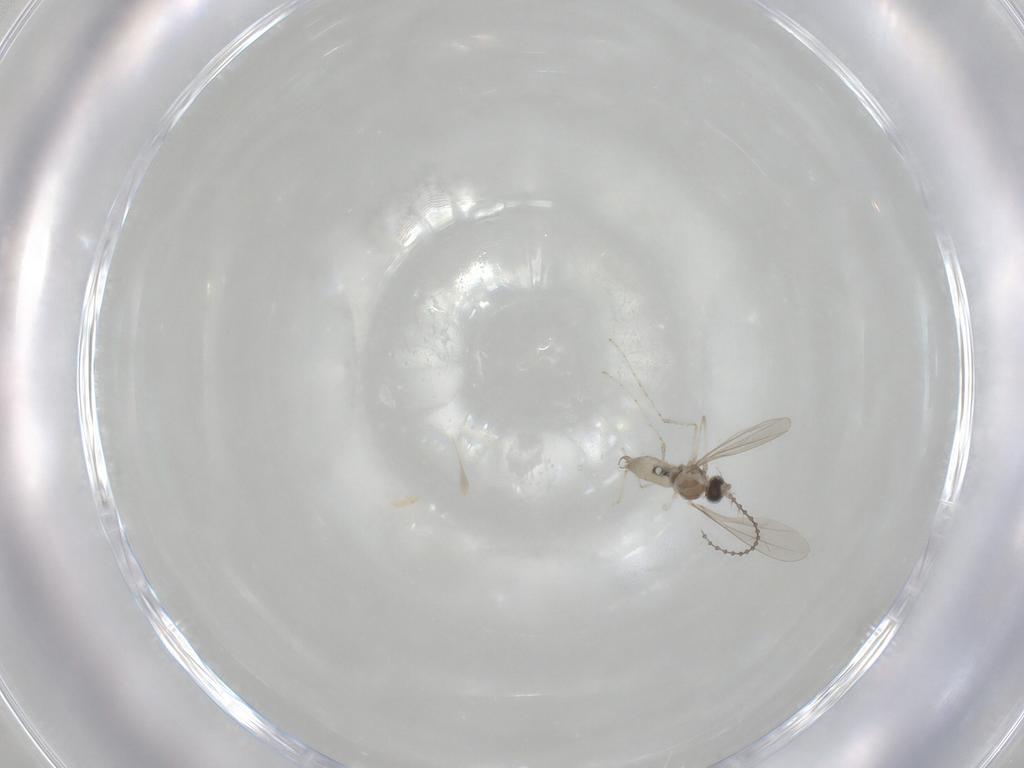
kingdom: Animalia
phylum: Arthropoda
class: Insecta
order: Diptera
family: Cecidomyiidae
